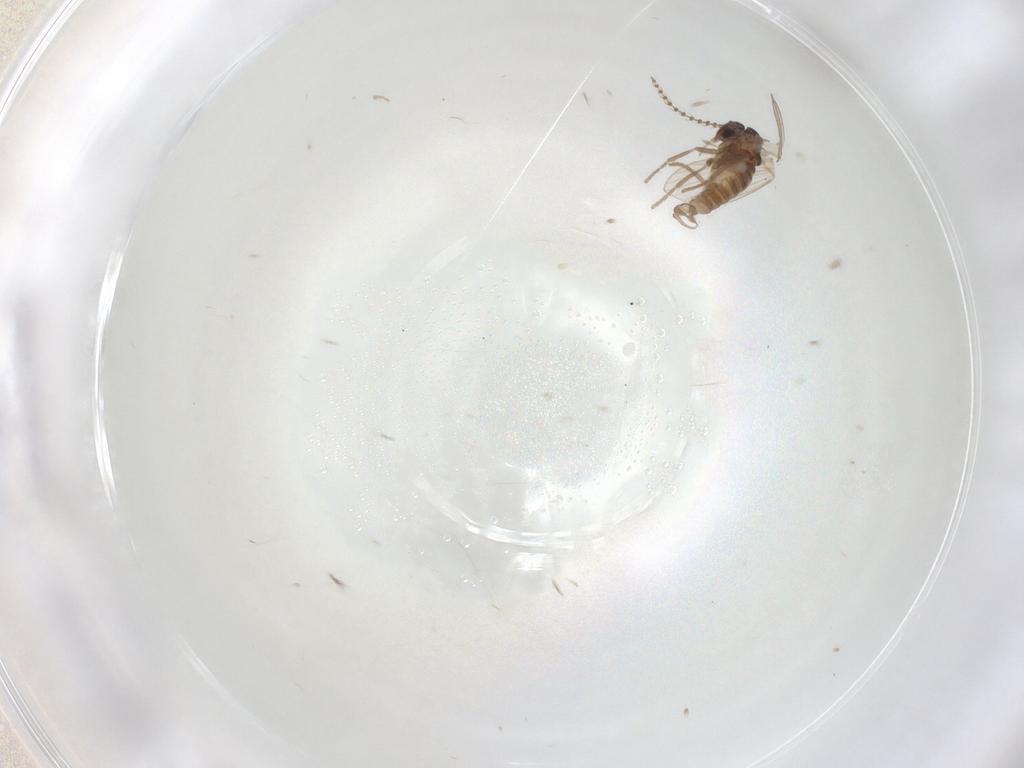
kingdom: Animalia
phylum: Arthropoda
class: Insecta
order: Diptera
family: Psychodidae
